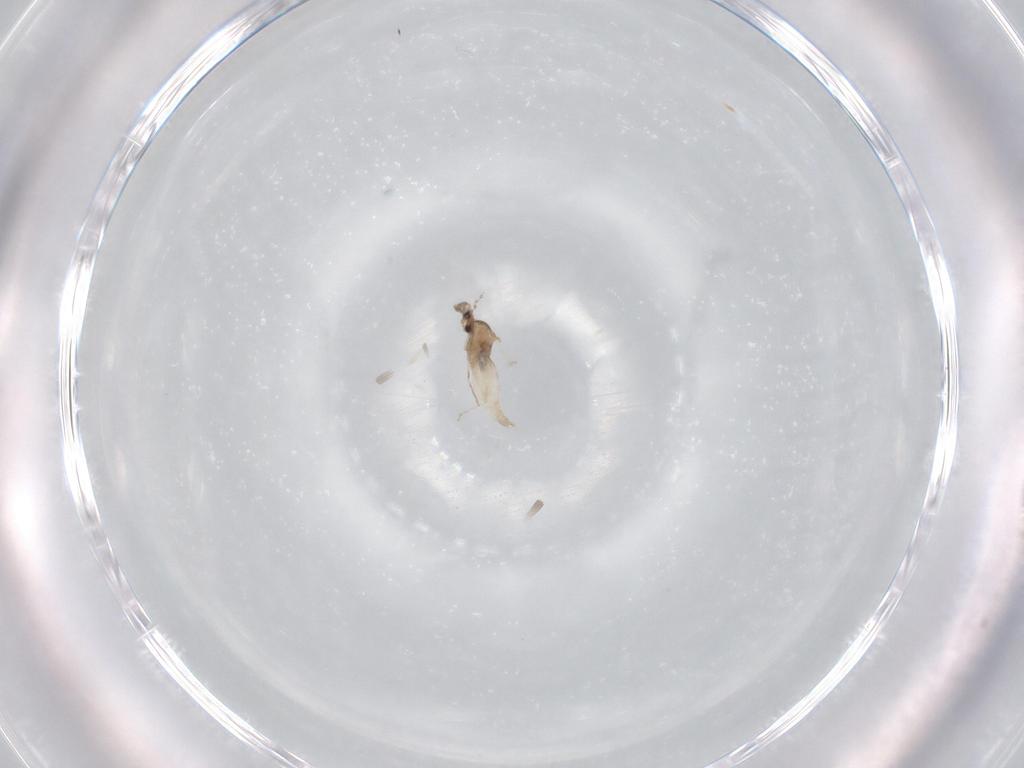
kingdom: Animalia
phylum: Arthropoda
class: Insecta
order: Diptera
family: Cecidomyiidae
